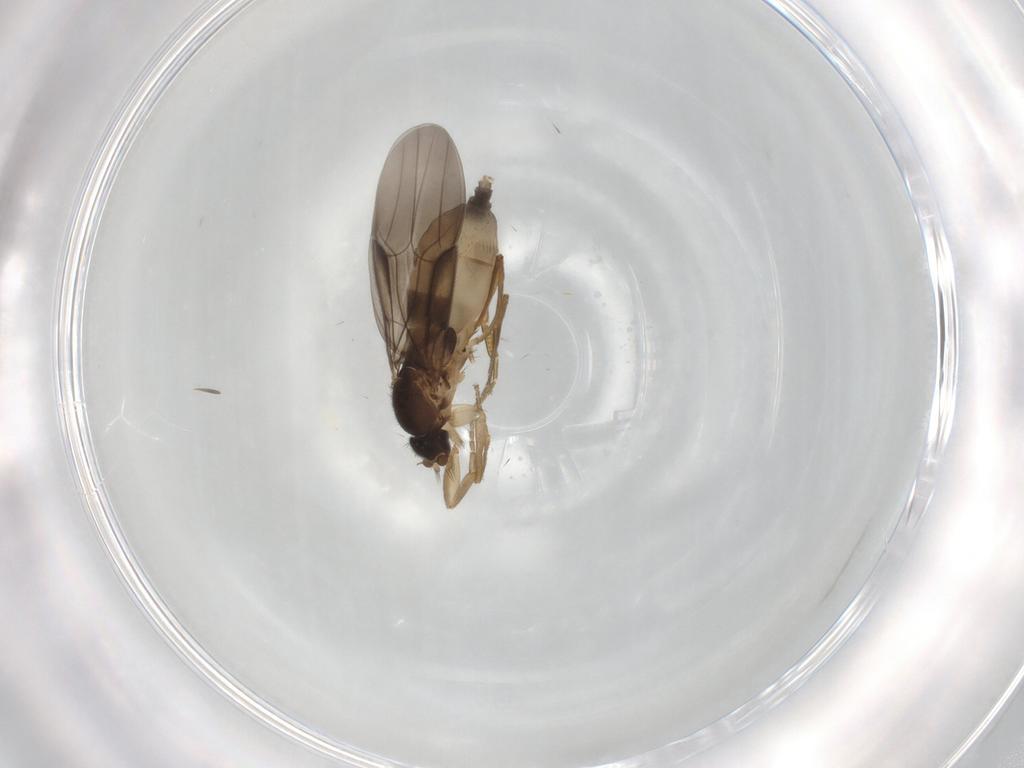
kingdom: Animalia
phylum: Arthropoda
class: Insecta
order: Diptera
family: Phoridae
